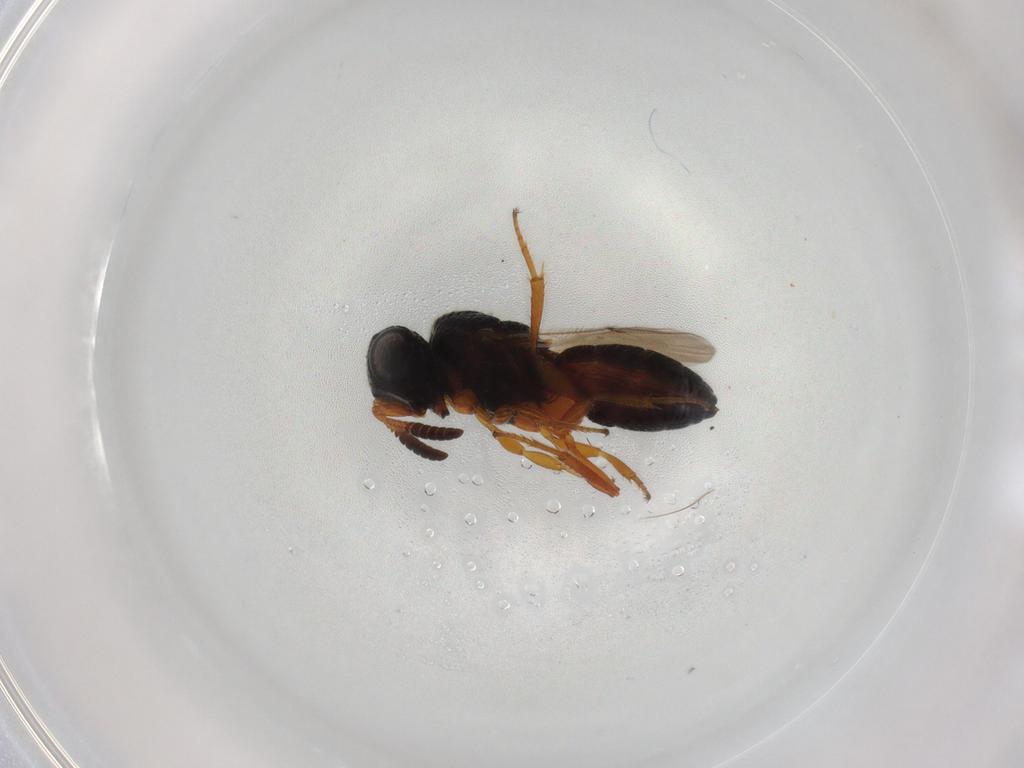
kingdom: Animalia
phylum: Arthropoda
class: Insecta
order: Hymenoptera
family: Scelionidae
